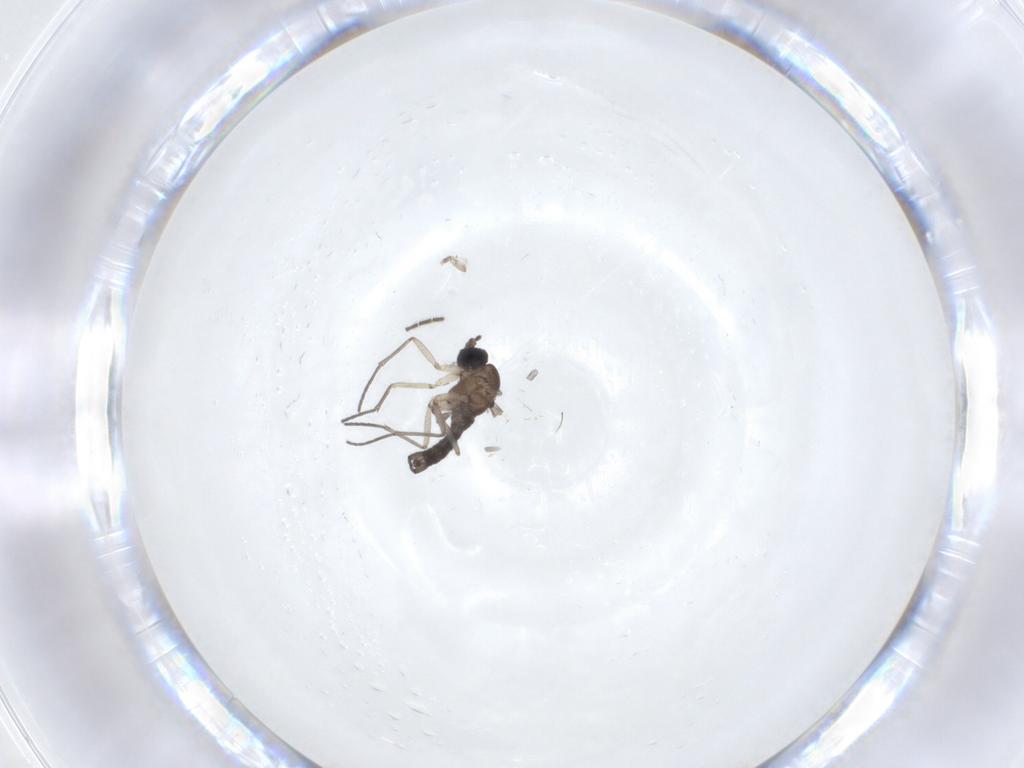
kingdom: Animalia
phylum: Arthropoda
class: Insecta
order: Diptera
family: Sciaridae
